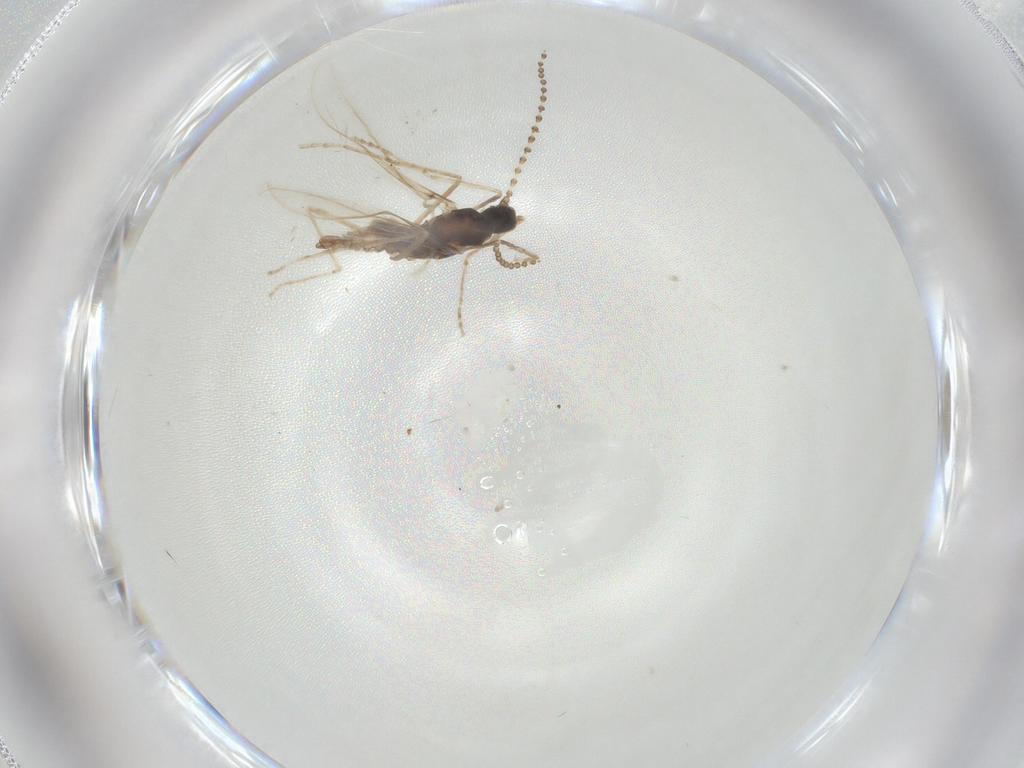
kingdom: Animalia
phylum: Arthropoda
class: Insecta
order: Diptera
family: Cecidomyiidae
